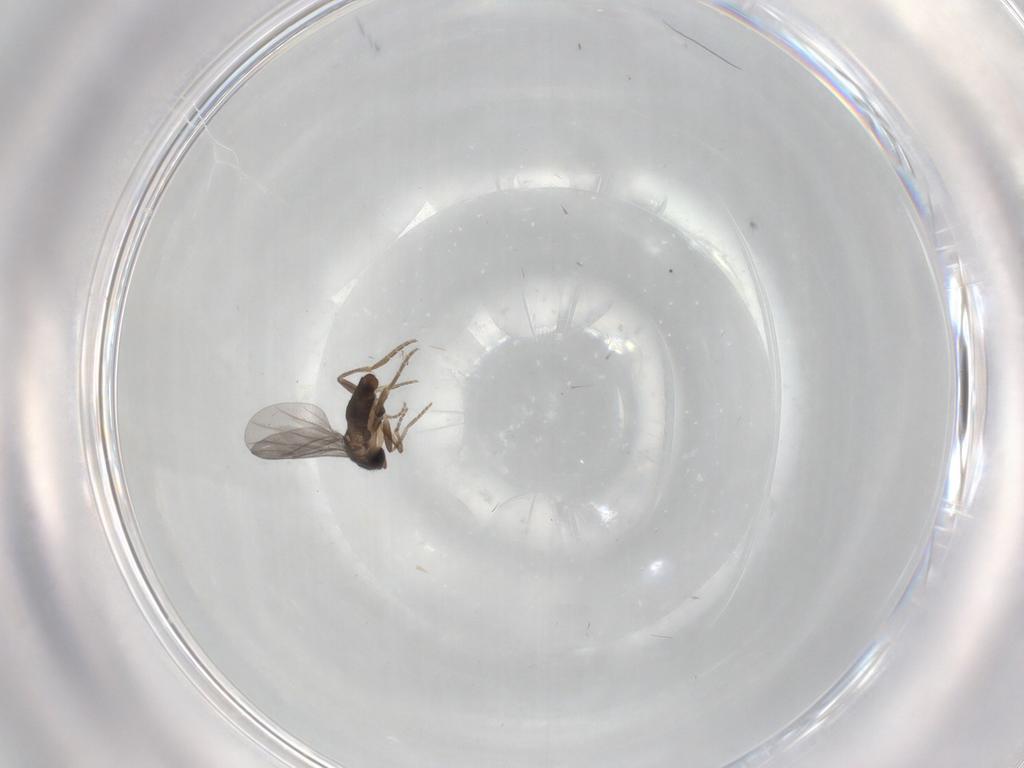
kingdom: Animalia
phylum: Arthropoda
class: Insecta
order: Diptera
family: Phoridae
